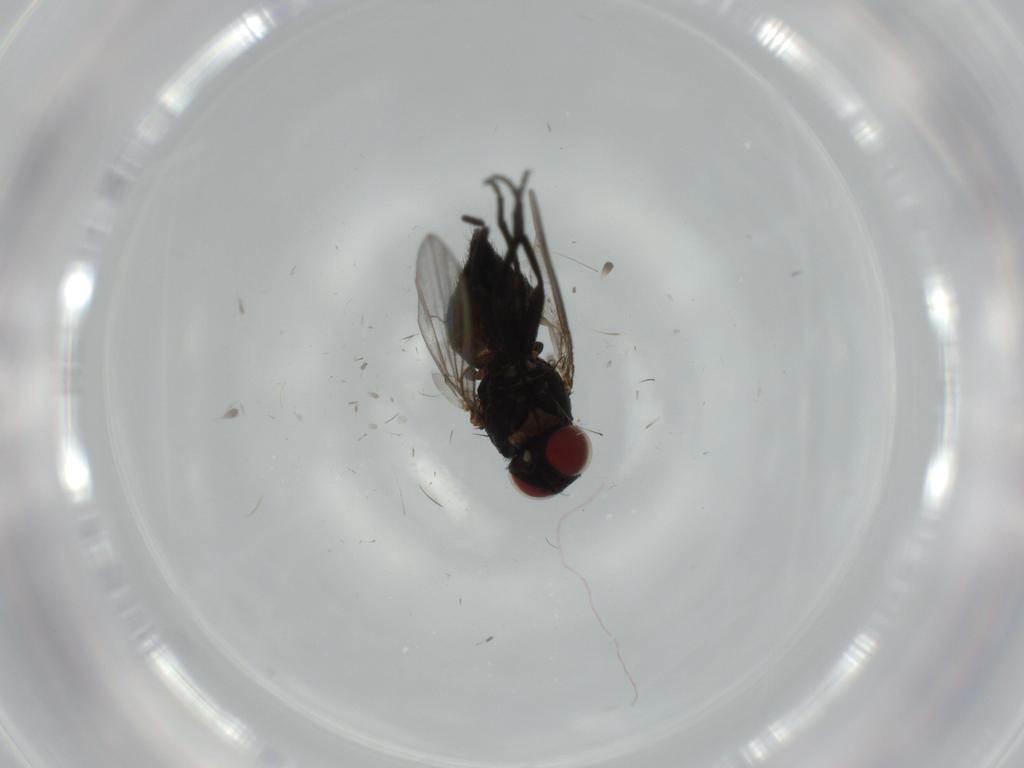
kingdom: Animalia
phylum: Arthropoda
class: Insecta
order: Diptera
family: Agromyzidae
